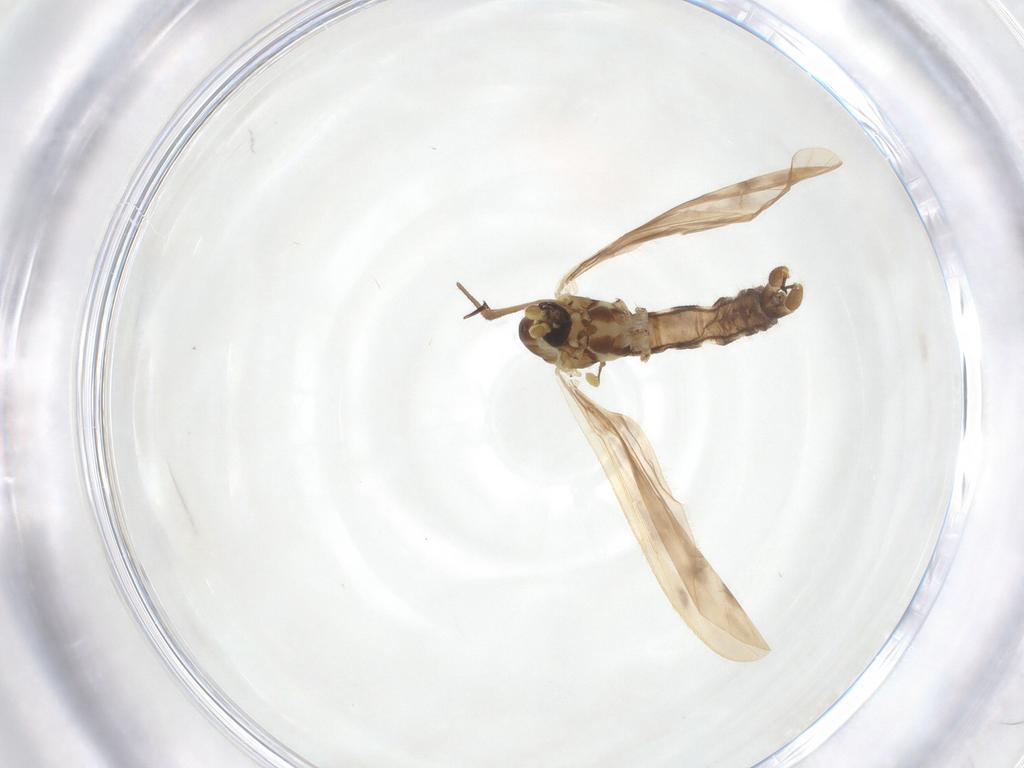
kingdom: Animalia
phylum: Arthropoda
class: Insecta
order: Diptera
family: Limoniidae
